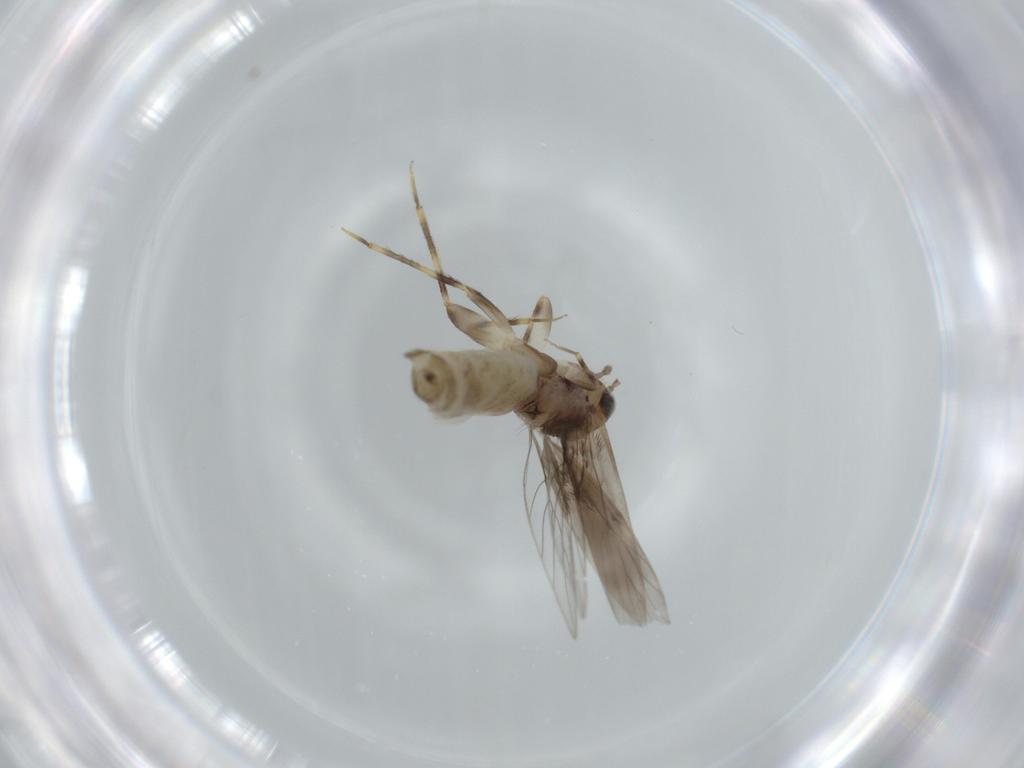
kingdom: Animalia
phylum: Arthropoda
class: Insecta
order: Psocodea
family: Lepidopsocidae
